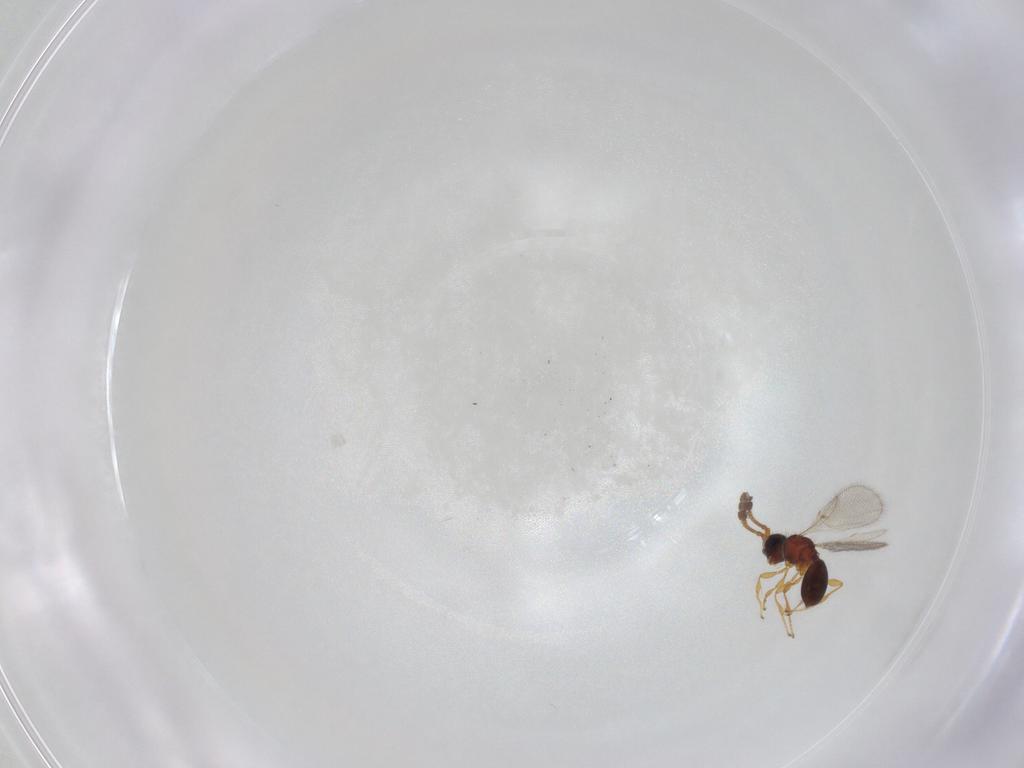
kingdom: Animalia
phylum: Arthropoda
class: Insecta
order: Hymenoptera
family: Diapriidae
